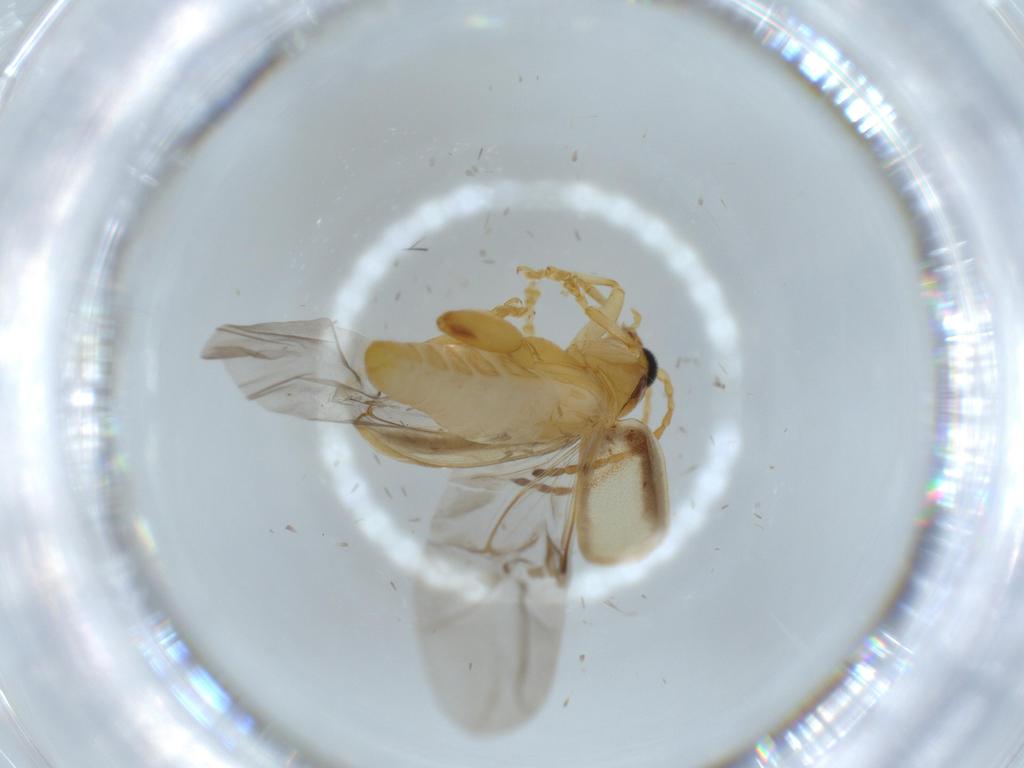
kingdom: Animalia
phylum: Arthropoda
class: Insecta
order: Coleoptera
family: Chrysomelidae
